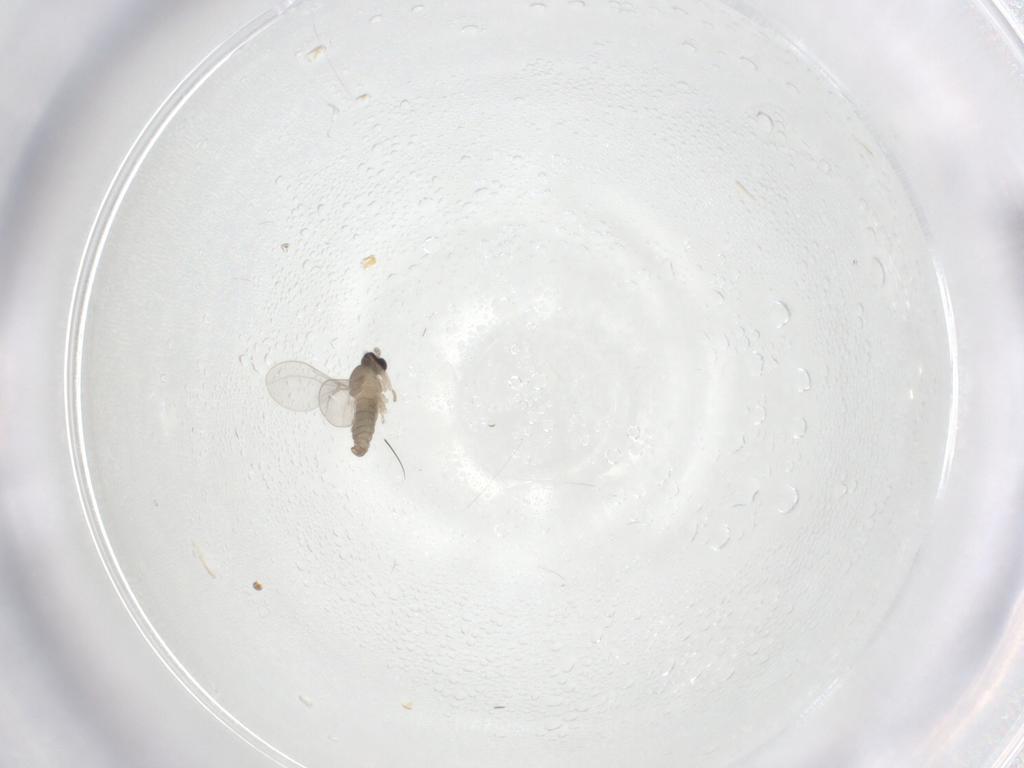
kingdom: Animalia
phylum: Arthropoda
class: Insecta
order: Diptera
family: Cecidomyiidae
